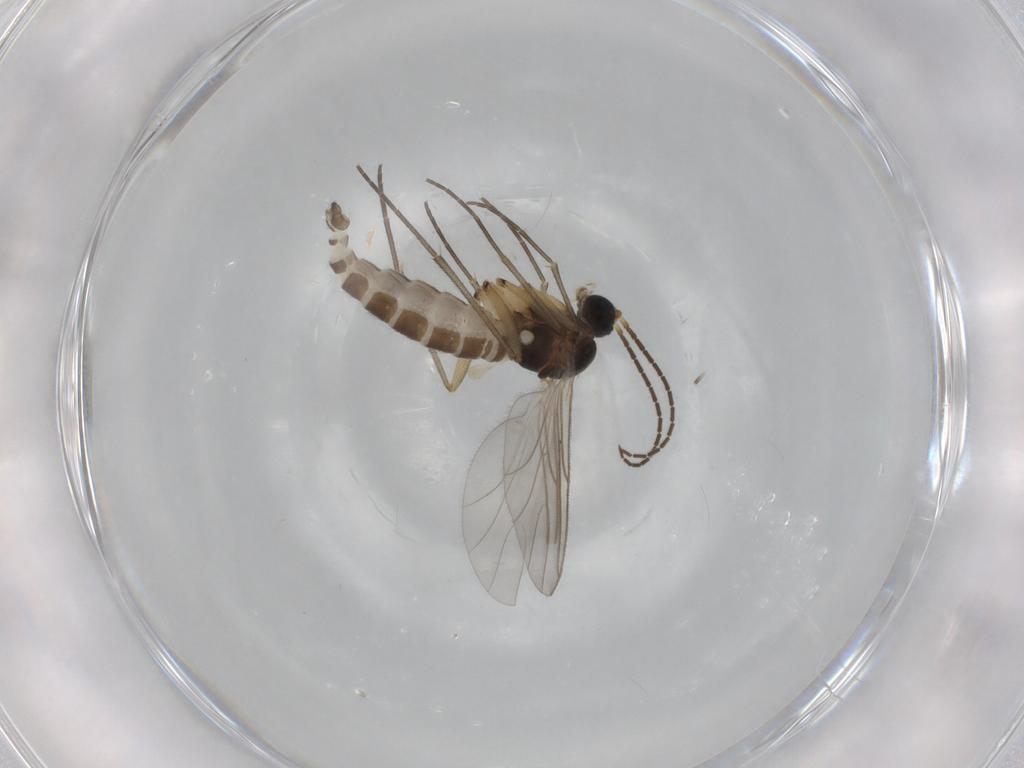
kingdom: Animalia
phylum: Arthropoda
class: Insecta
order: Diptera
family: Sciaridae
